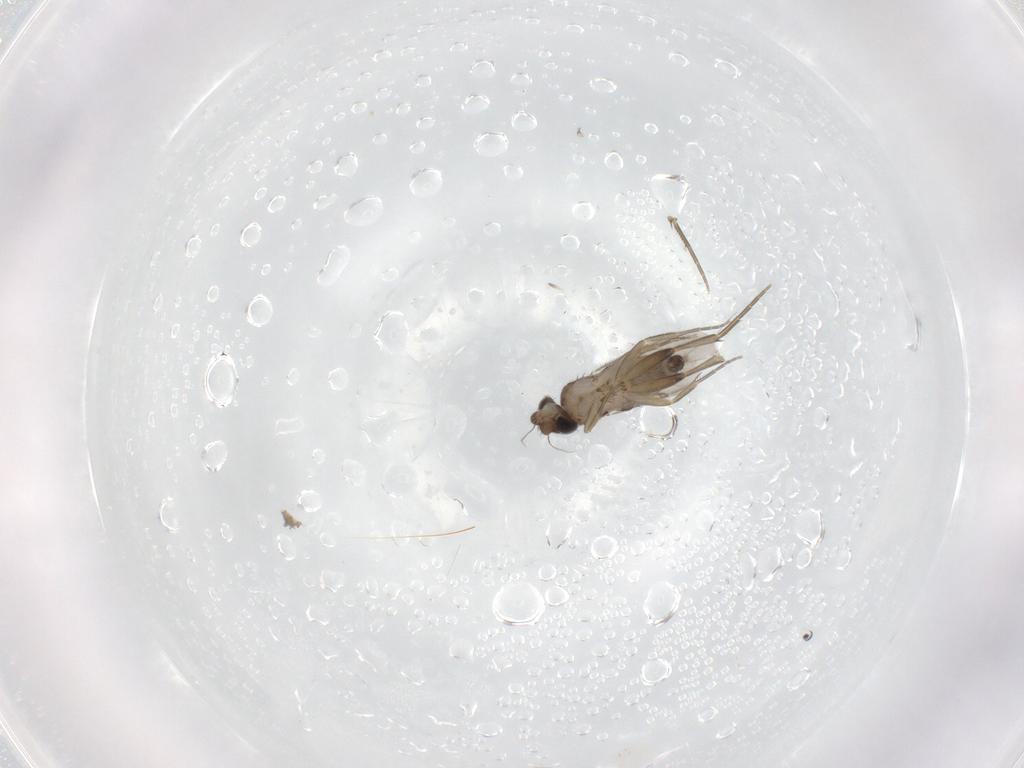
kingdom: Animalia
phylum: Arthropoda
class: Insecta
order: Diptera
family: Phoridae
